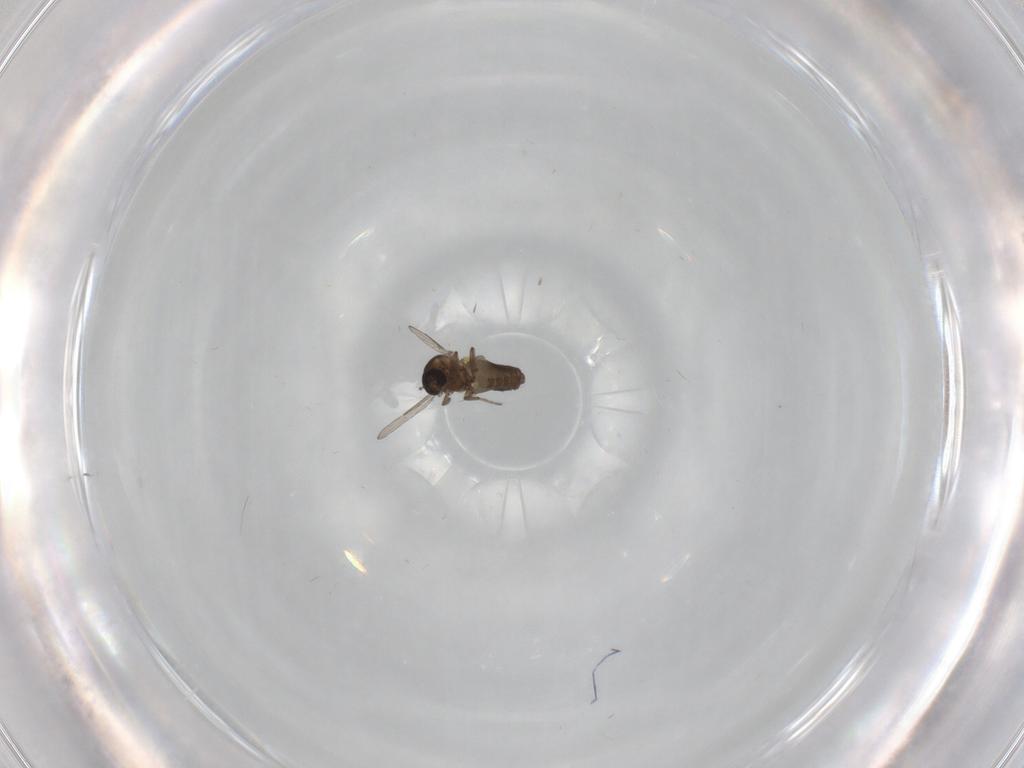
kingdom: Animalia
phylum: Arthropoda
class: Insecta
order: Diptera
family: Ceratopogonidae
